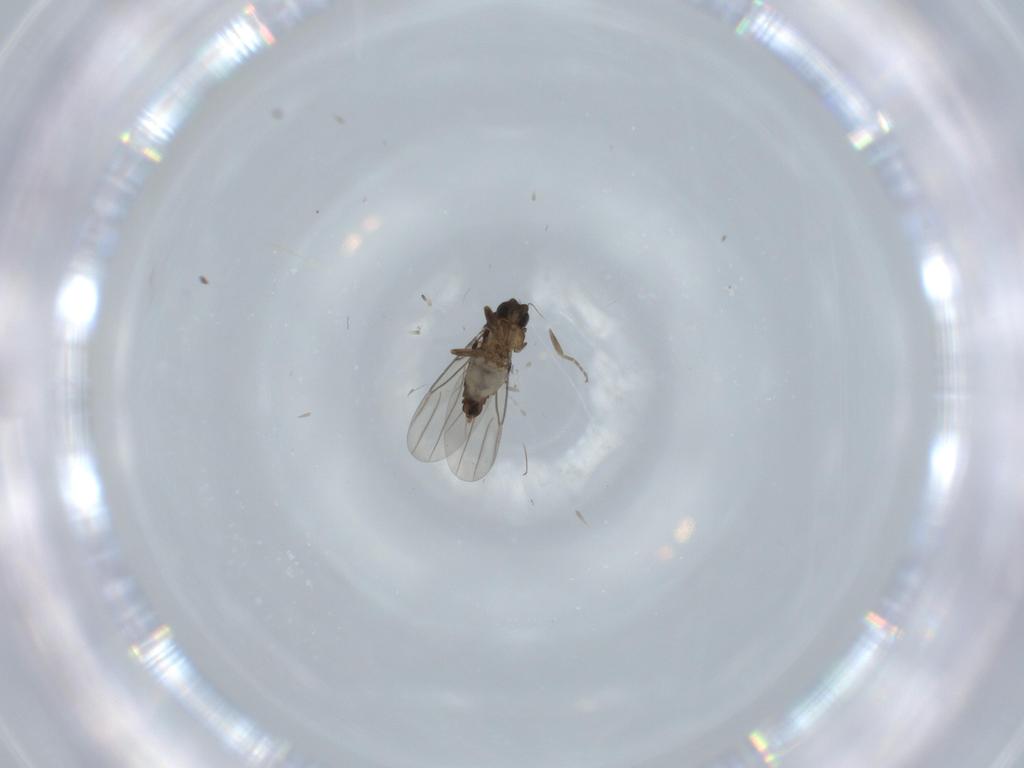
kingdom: Animalia
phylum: Arthropoda
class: Insecta
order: Diptera
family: Phoridae
